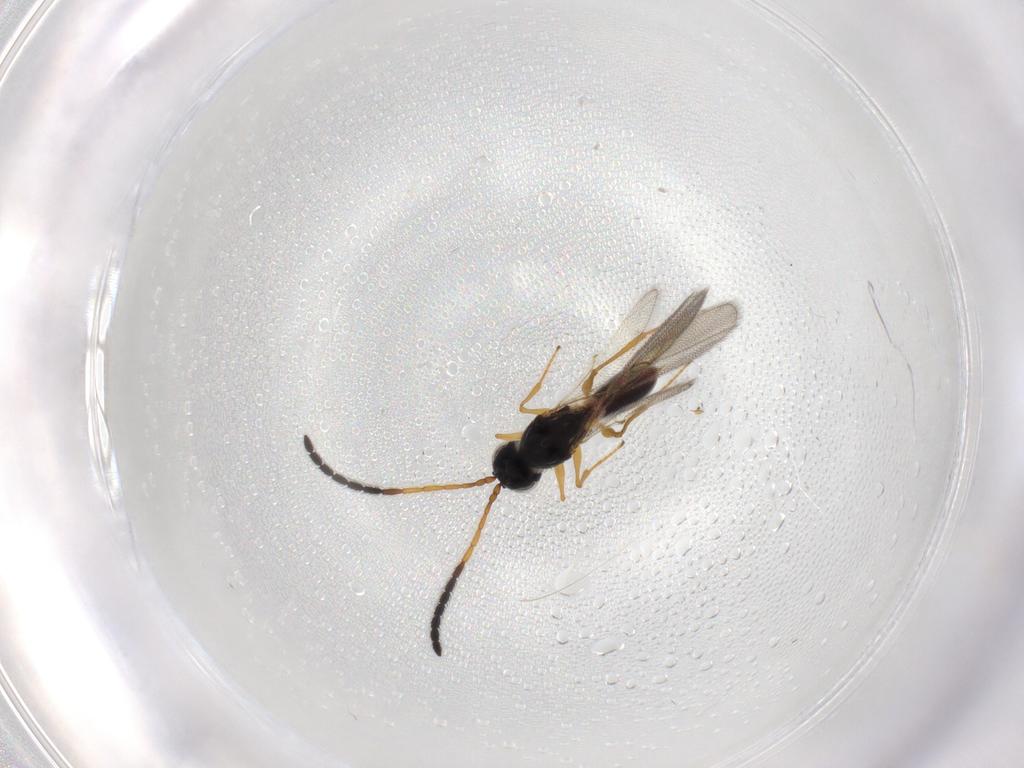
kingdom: Animalia
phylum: Arthropoda
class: Insecta
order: Hymenoptera
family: Figitidae
